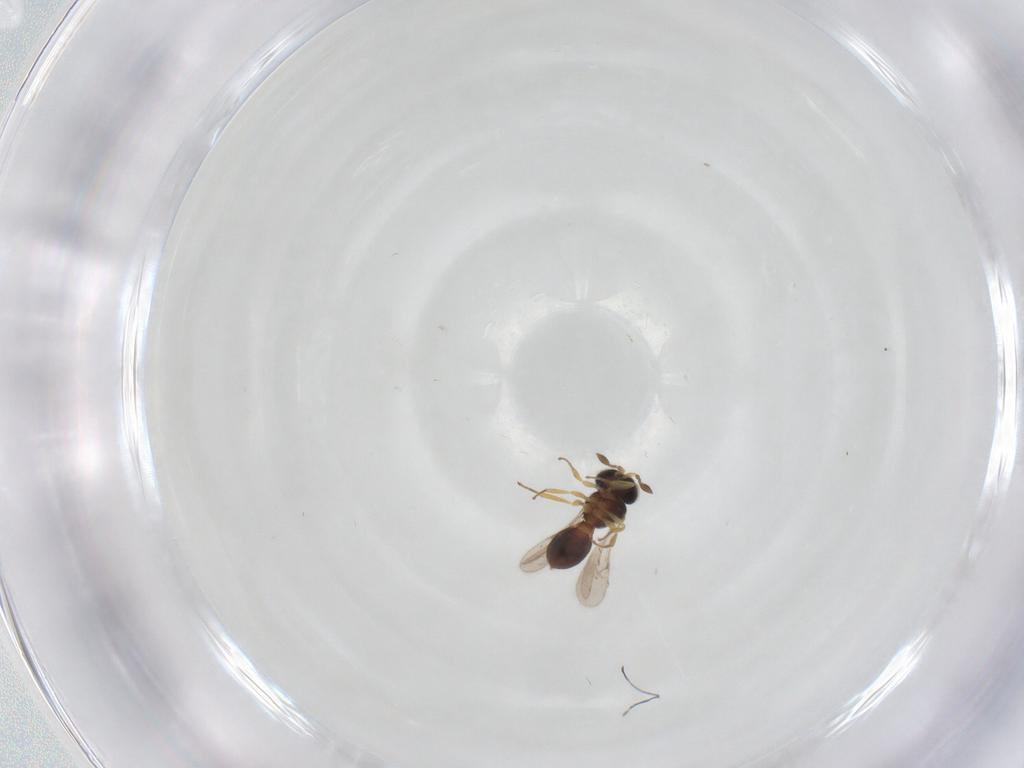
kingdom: Animalia
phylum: Arthropoda
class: Insecta
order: Hymenoptera
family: Scelionidae
